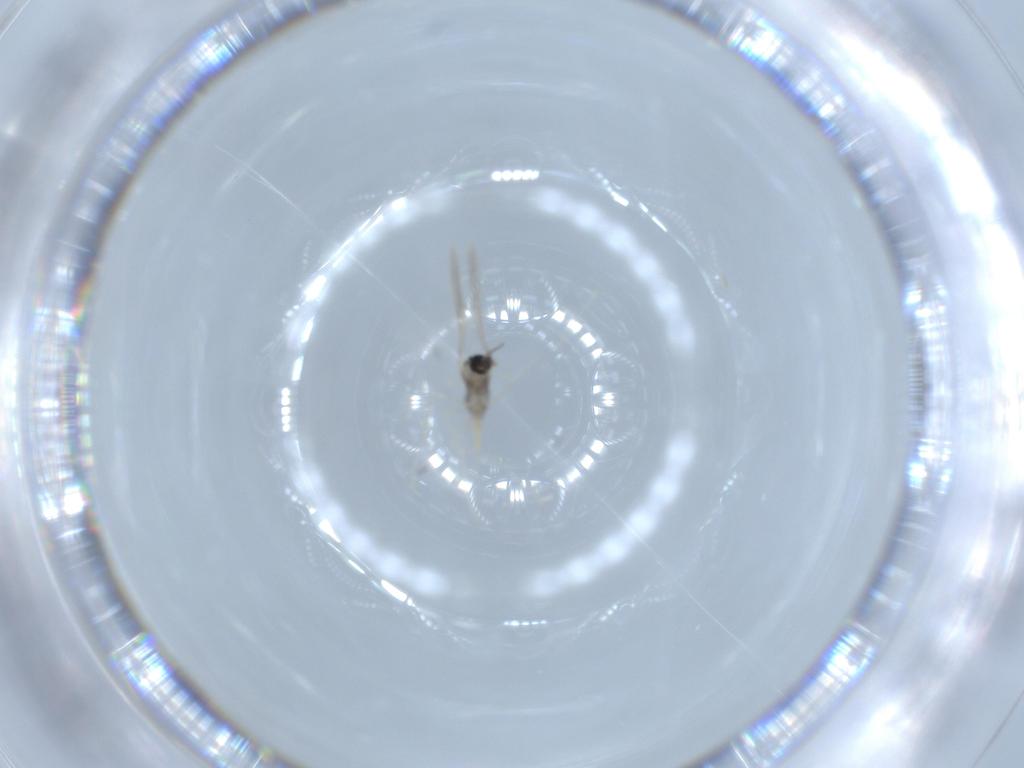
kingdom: Animalia
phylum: Arthropoda
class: Insecta
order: Diptera
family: Cecidomyiidae
